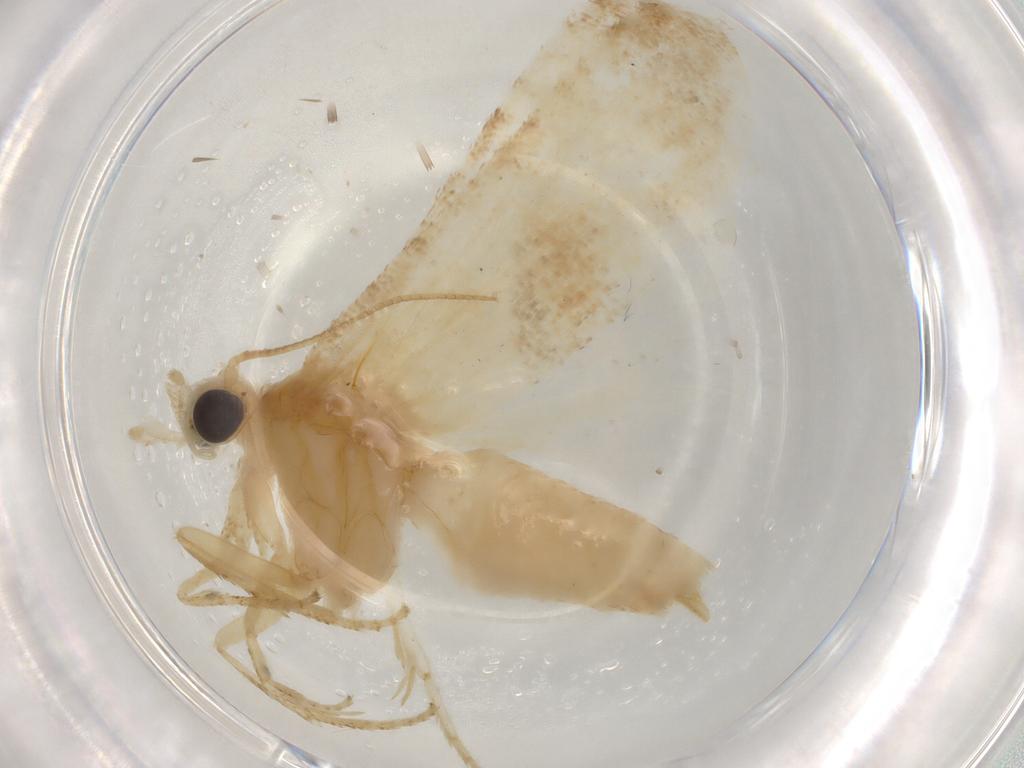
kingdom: Animalia
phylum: Arthropoda
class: Insecta
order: Lepidoptera
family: Tortricidae
